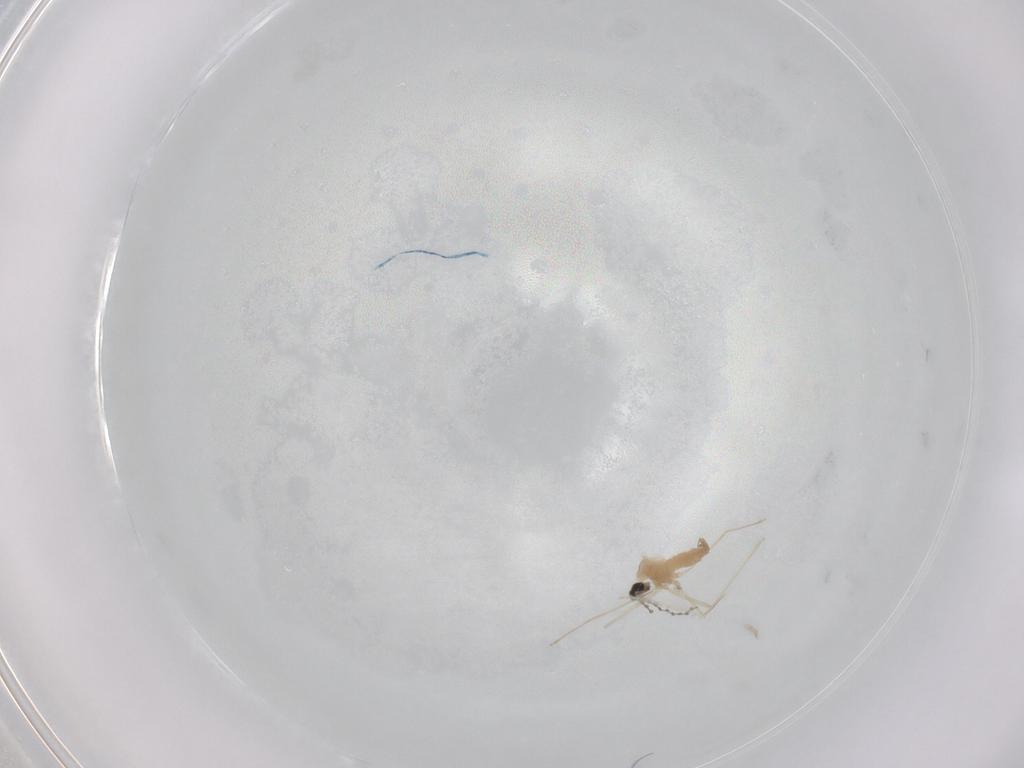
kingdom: Animalia
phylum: Arthropoda
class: Insecta
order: Diptera
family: Cecidomyiidae
